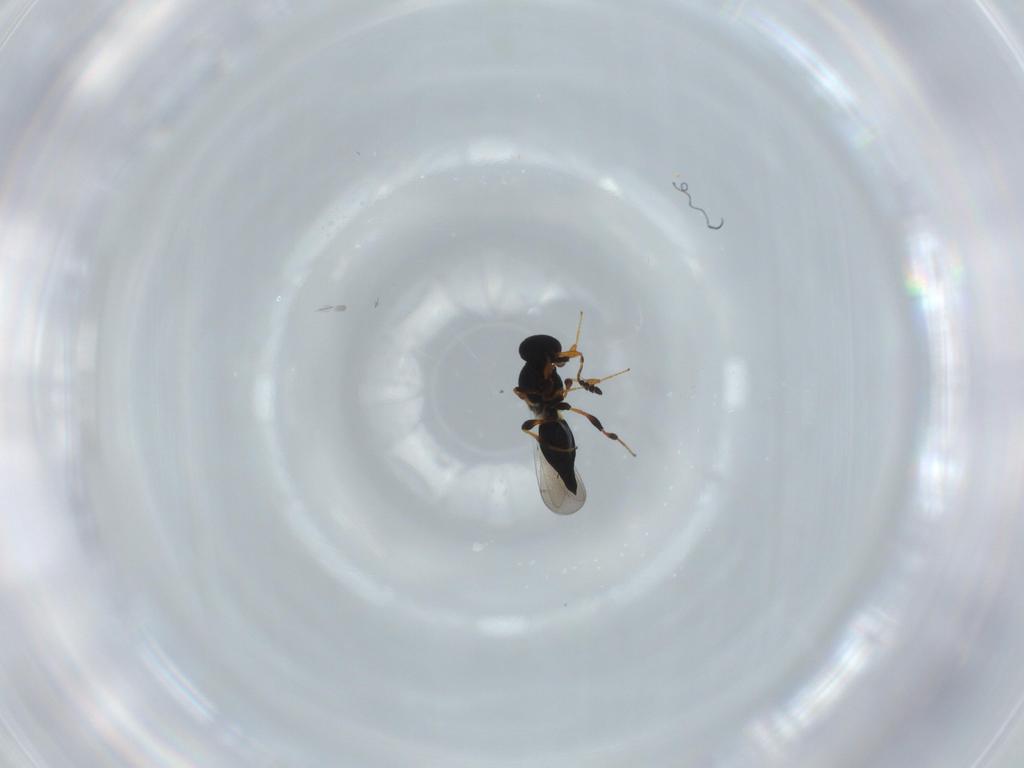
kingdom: Animalia
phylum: Arthropoda
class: Insecta
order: Hymenoptera
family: Platygastridae
